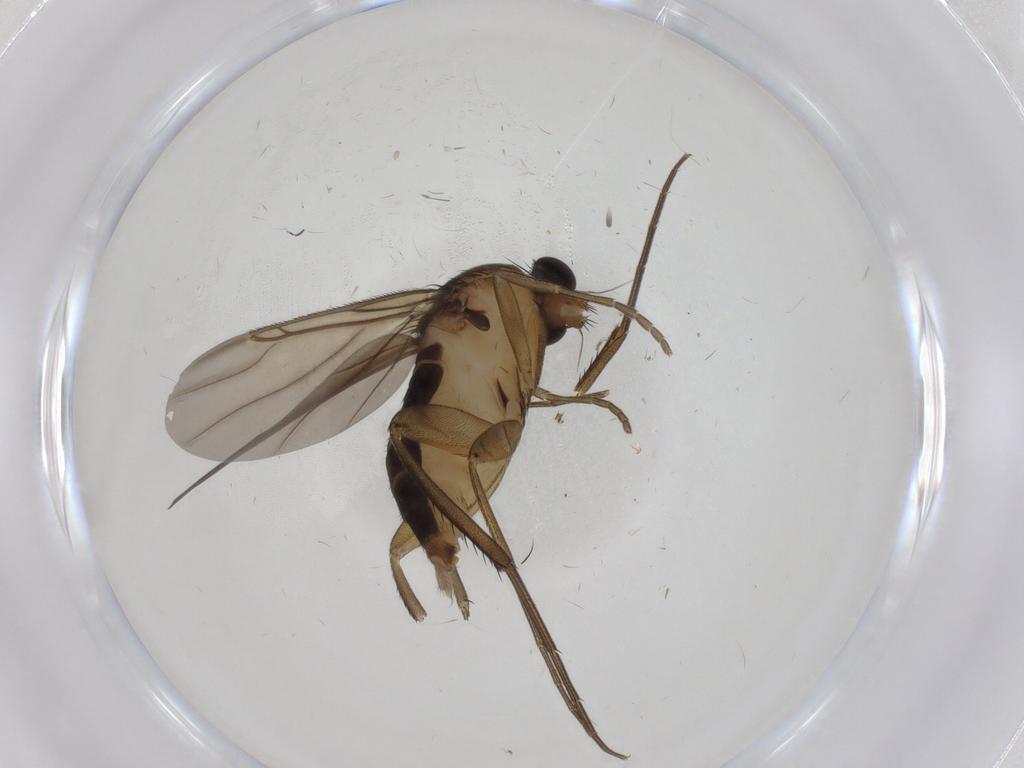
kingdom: Animalia
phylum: Arthropoda
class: Insecta
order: Diptera
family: Phoridae
